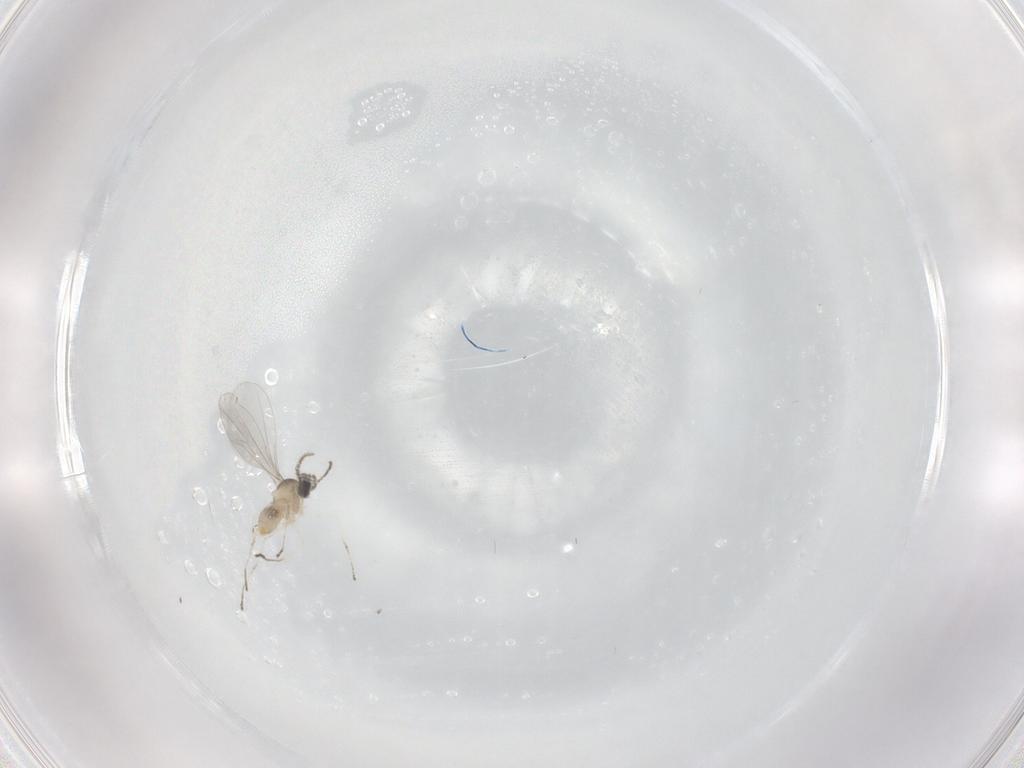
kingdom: Animalia
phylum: Arthropoda
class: Insecta
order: Diptera
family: Cecidomyiidae
